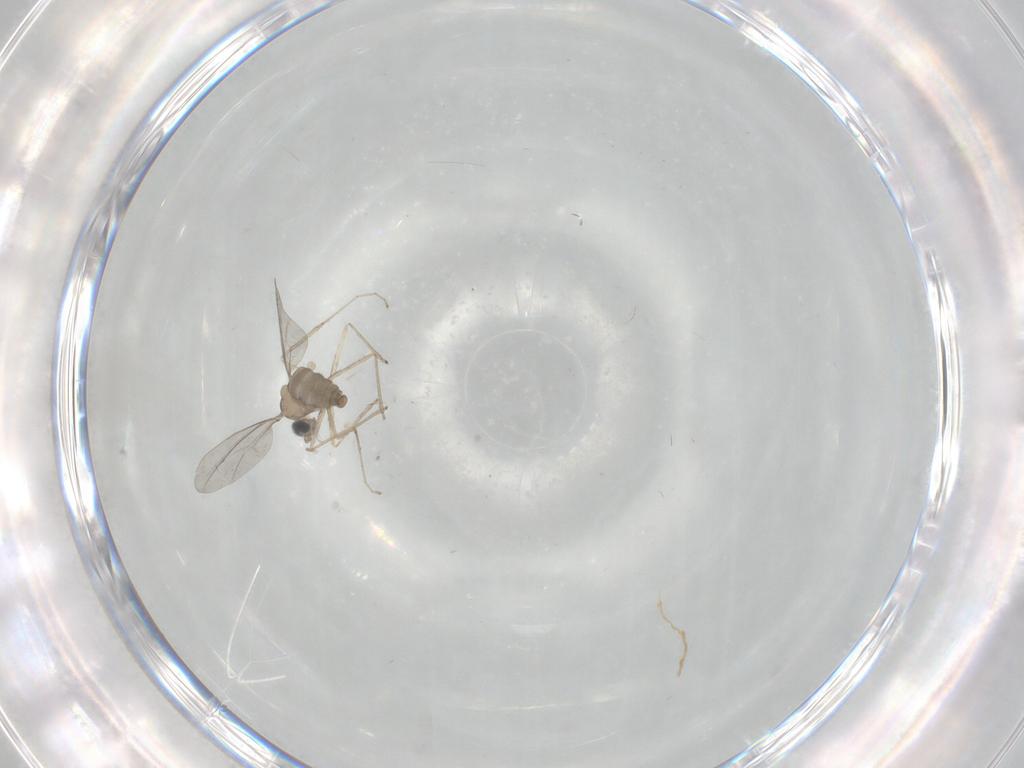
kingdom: Animalia
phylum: Arthropoda
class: Insecta
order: Diptera
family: Cecidomyiidae
